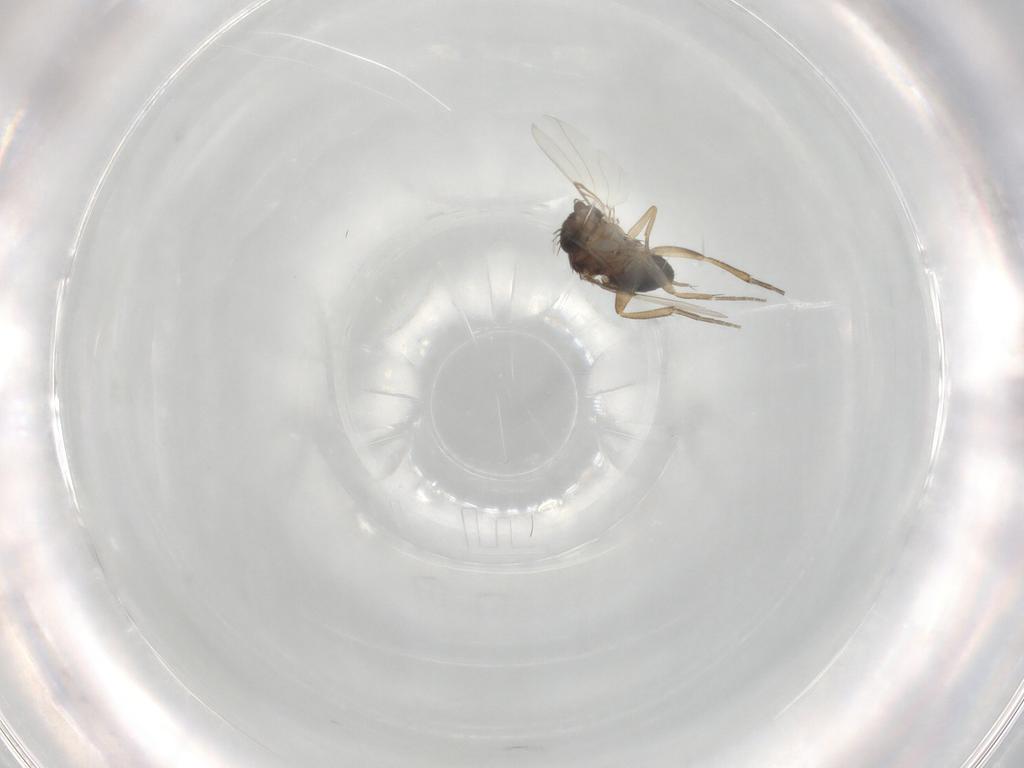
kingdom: Animalia
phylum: Arthropoda
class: Insecta
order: Diptera
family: Phoridae
